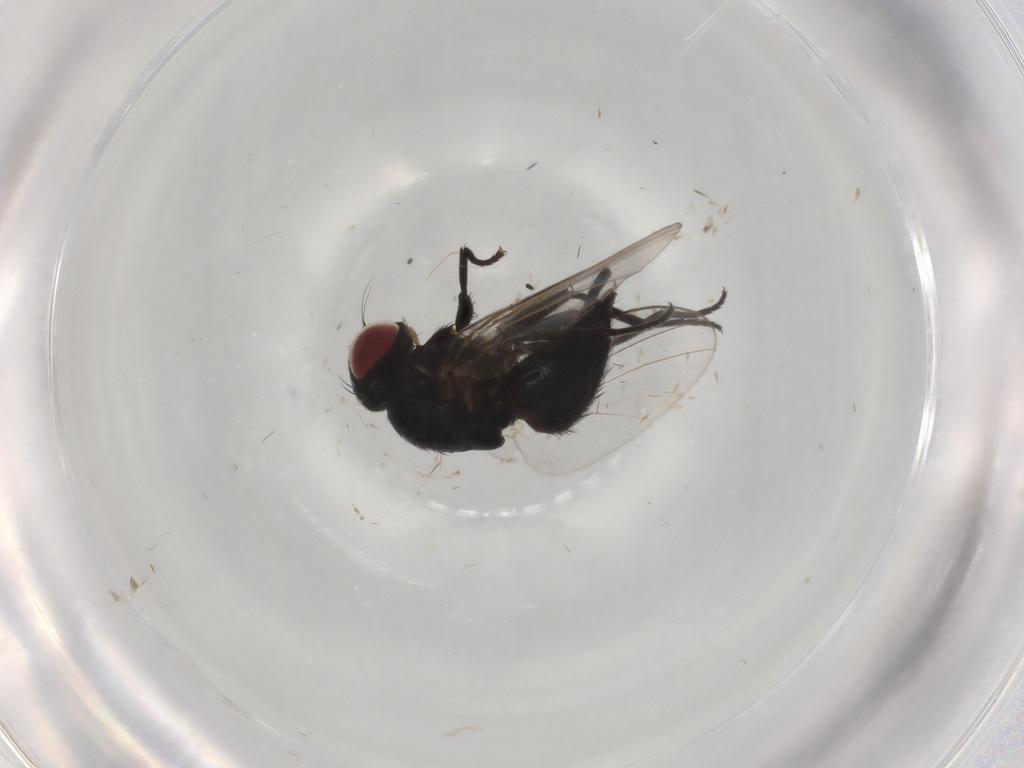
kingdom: Animalia
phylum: Arthropoda
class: Insecta
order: Diptera
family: Agromyzidae
